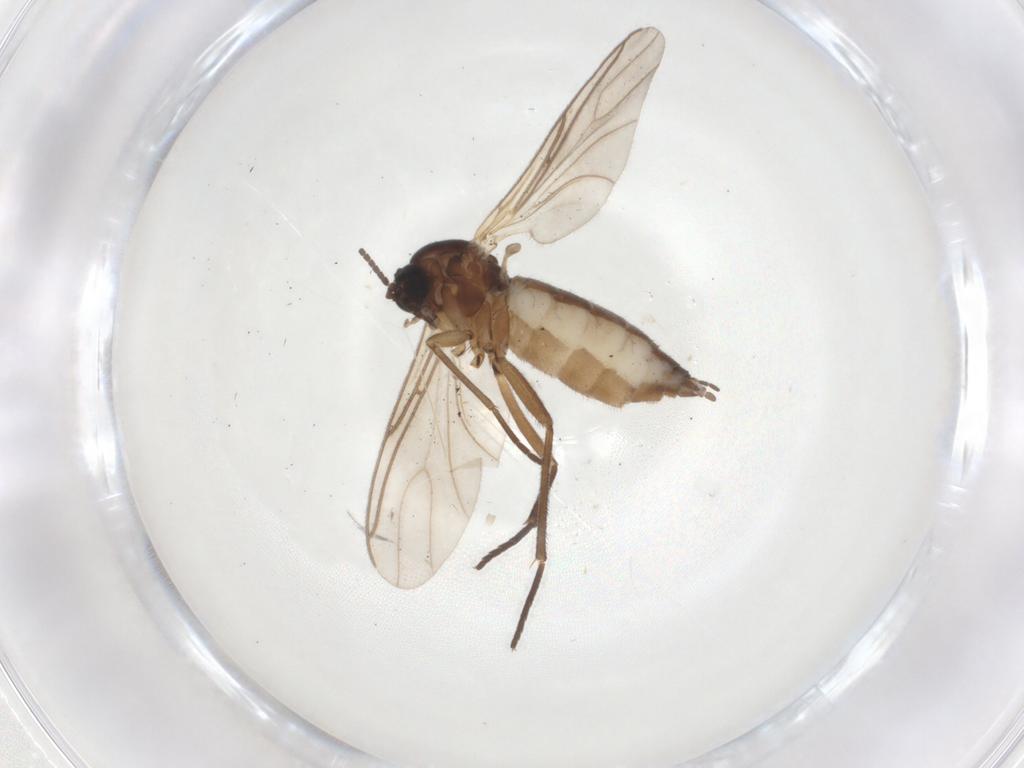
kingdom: Animalia
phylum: Arthropoda
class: Insecta
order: Diptera
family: Sciaridae
